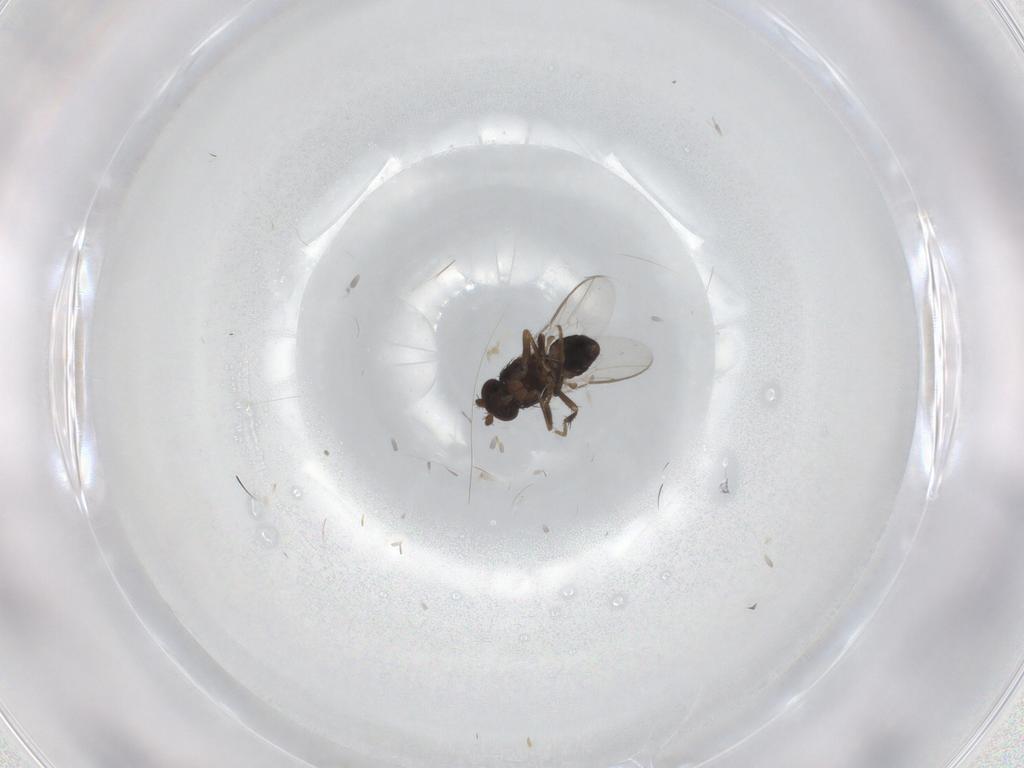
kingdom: Animalia
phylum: Arthropoda
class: Insecta
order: Diptera
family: Sphaeroceridae
